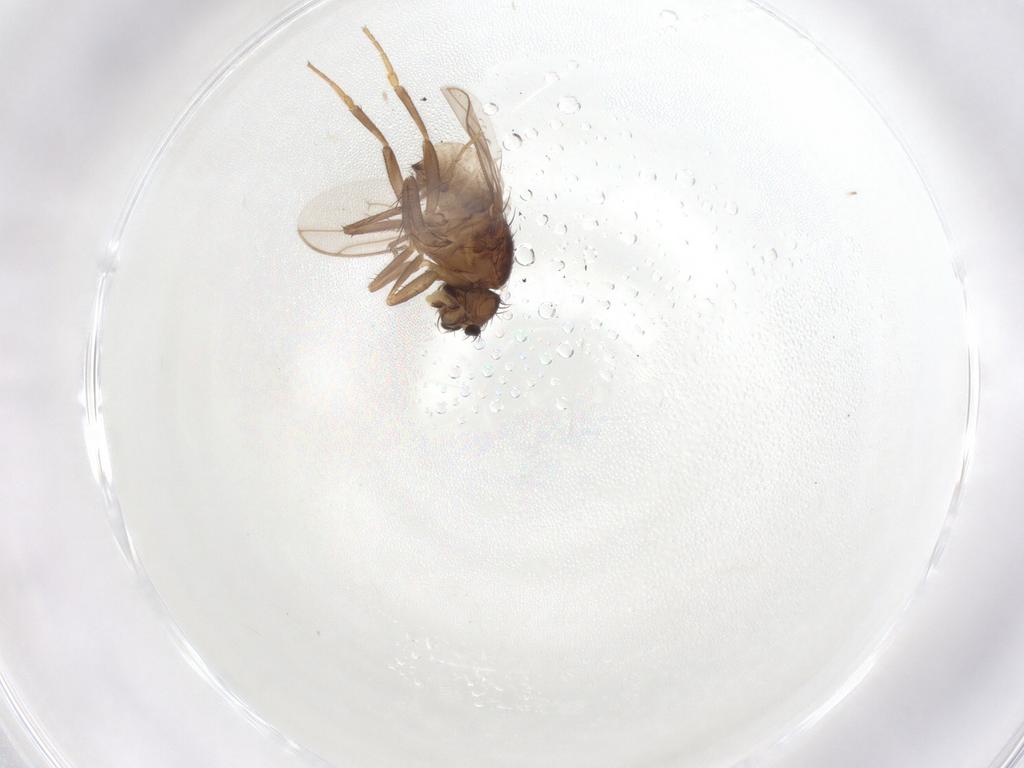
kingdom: Animalia
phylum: Arthropoda
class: Insecta
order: Diptera
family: Sphaeroceridae
